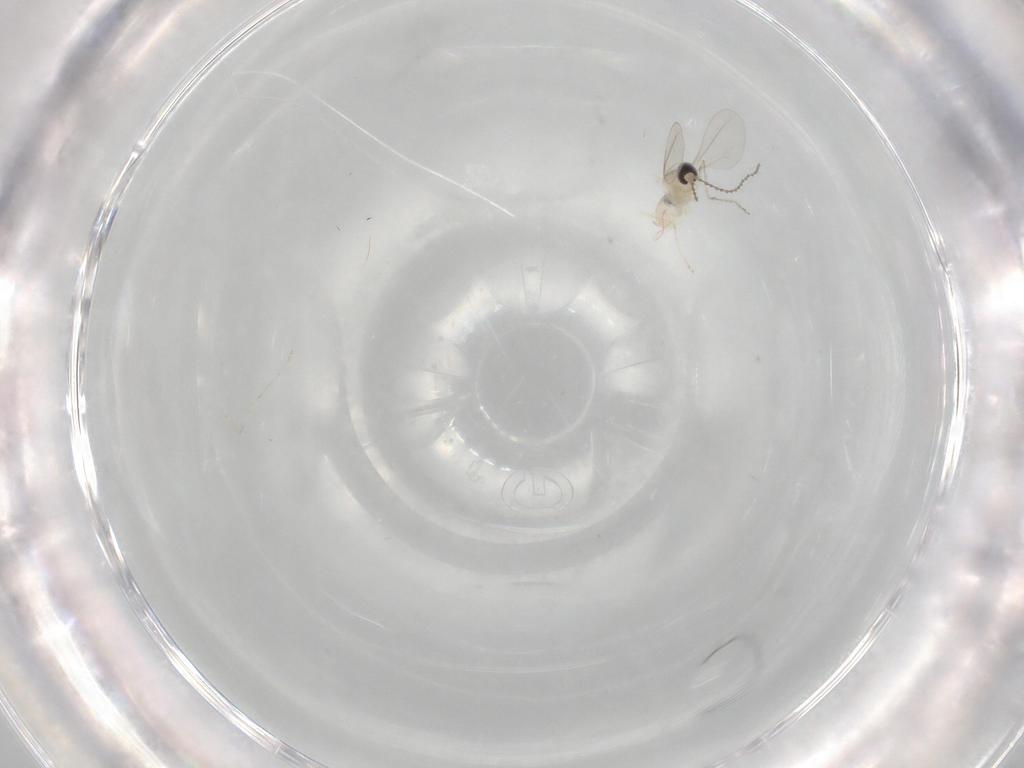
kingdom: Animalia
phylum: Arthropoda
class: Insecta
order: Diptera
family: Cecidomyiidae
